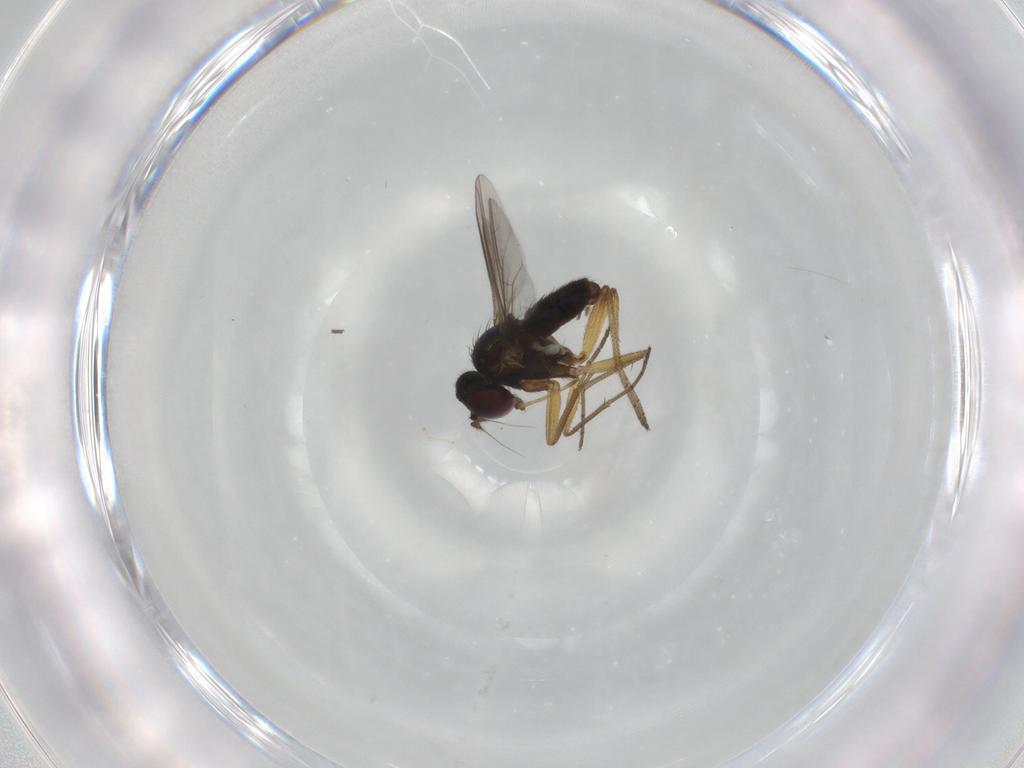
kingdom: Animalia
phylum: Arthropoda
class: Insecta
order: Diptera
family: Dolichopodidae
